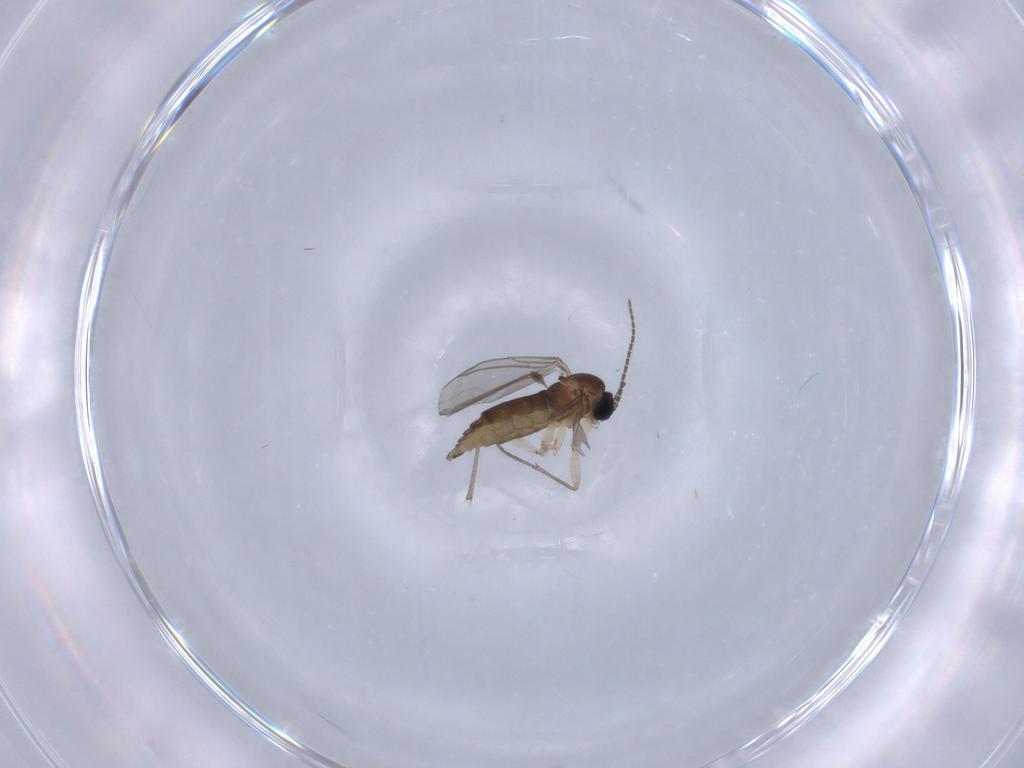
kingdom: Animalia
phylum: Arthropoda
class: Insecta
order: Diptera
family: Sciaridae
